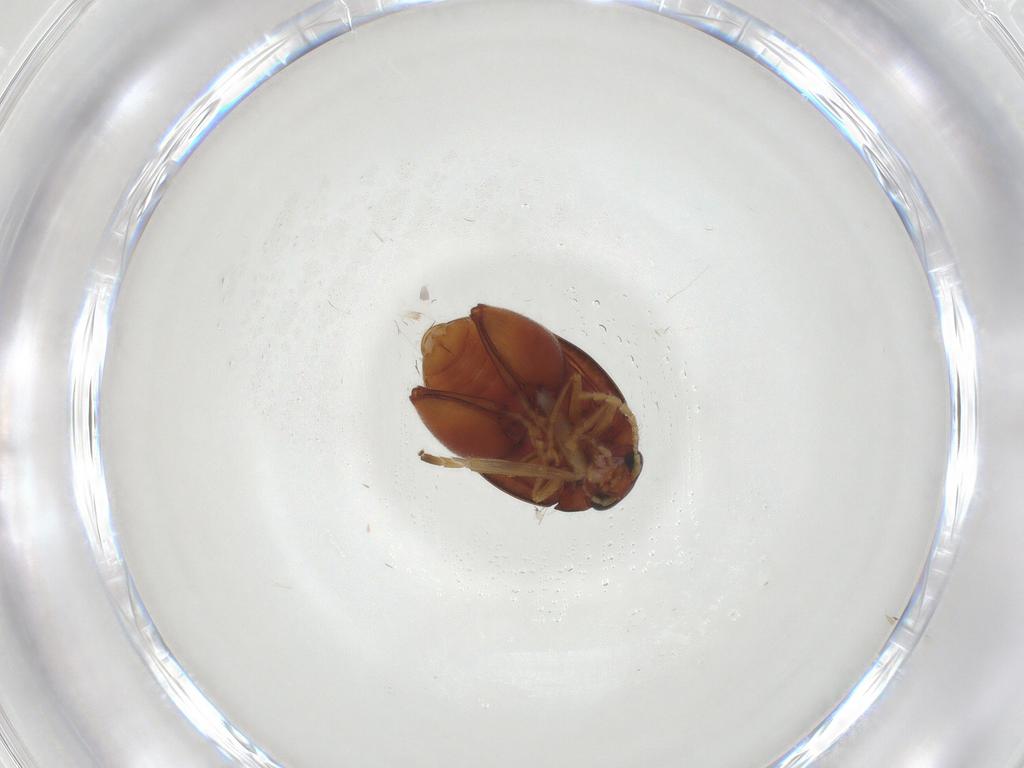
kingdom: Animalia
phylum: Arthropoda
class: Insecta
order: Coleoptera
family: Chrysomelidae
